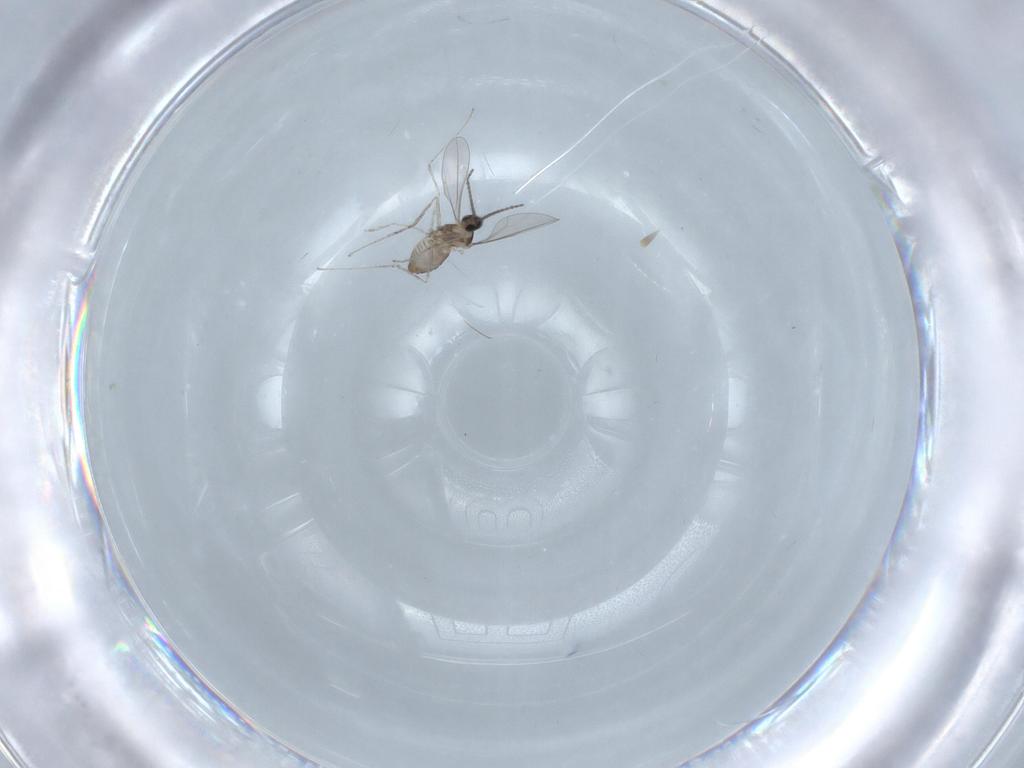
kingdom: Animalia
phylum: Arthropoda
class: Insecta
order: Diptera
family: Cecidomyiidae
